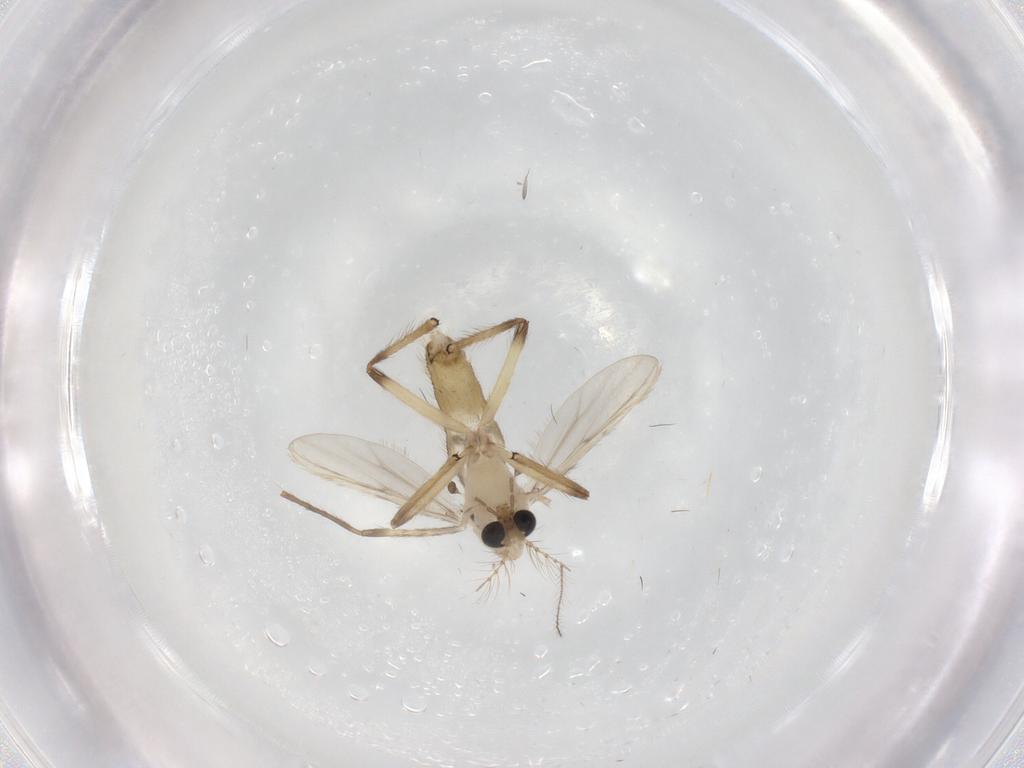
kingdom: Animalia
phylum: Arthropoda
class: Insecta
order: Diptera
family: Chironomidae
